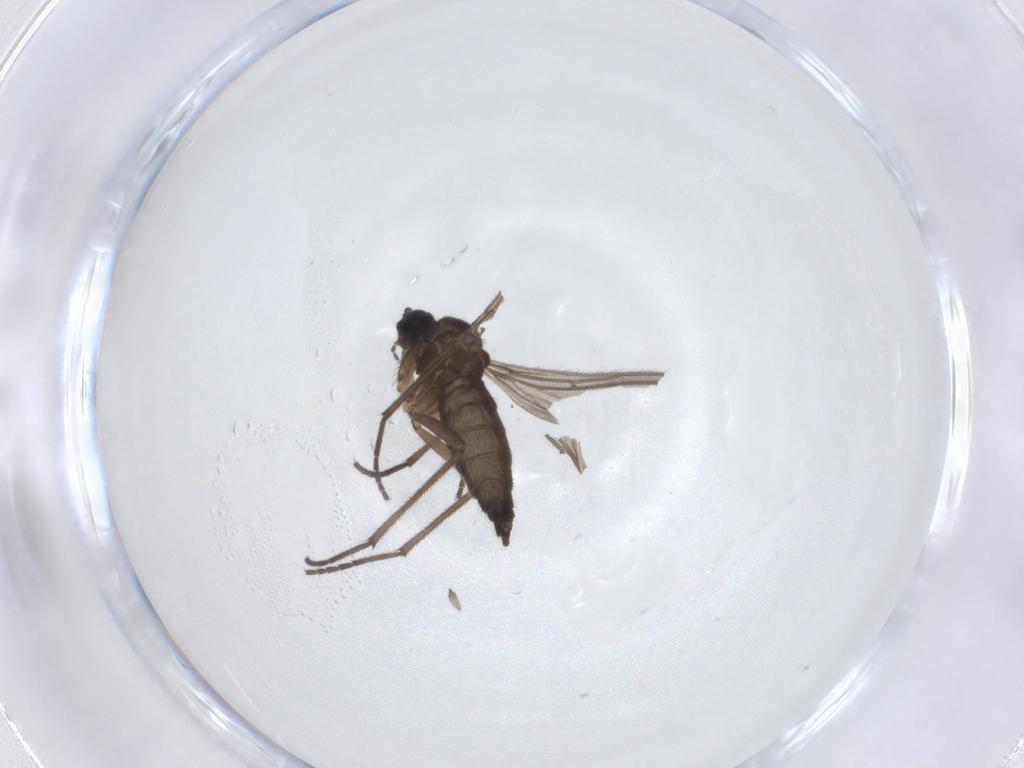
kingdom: Animalia
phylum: Arthropoda
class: Insecta
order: Diptera
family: Sciaridae
